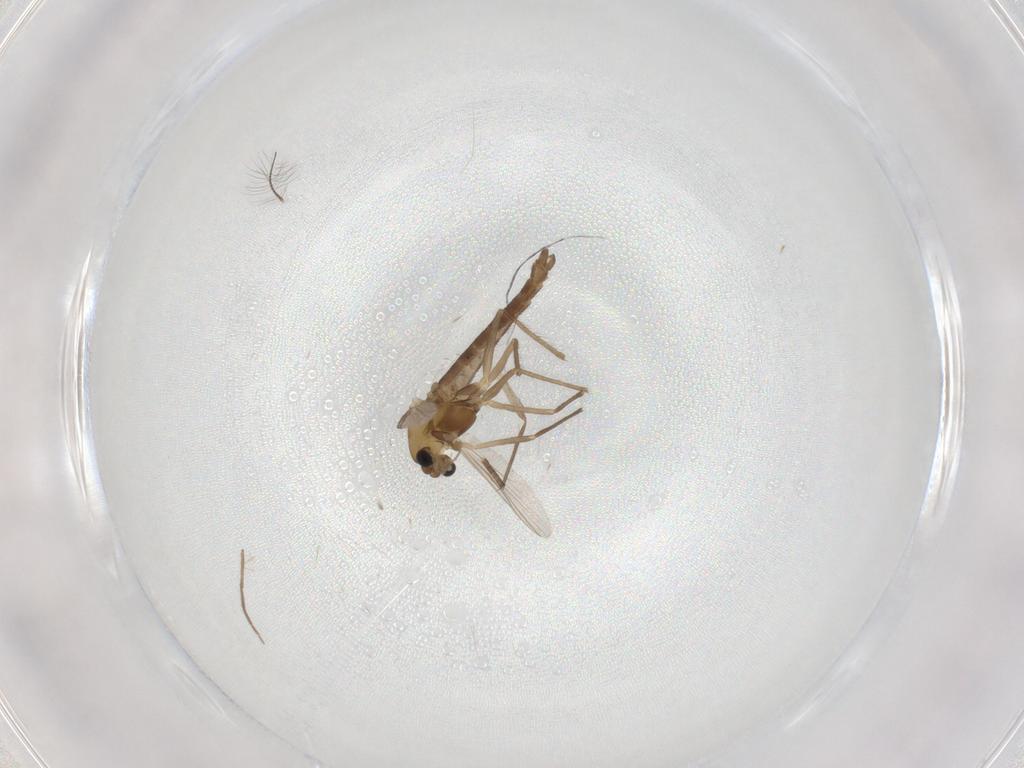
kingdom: Animalia
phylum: Arthropoda
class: Insecta
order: Diptera
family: Chironomidae
